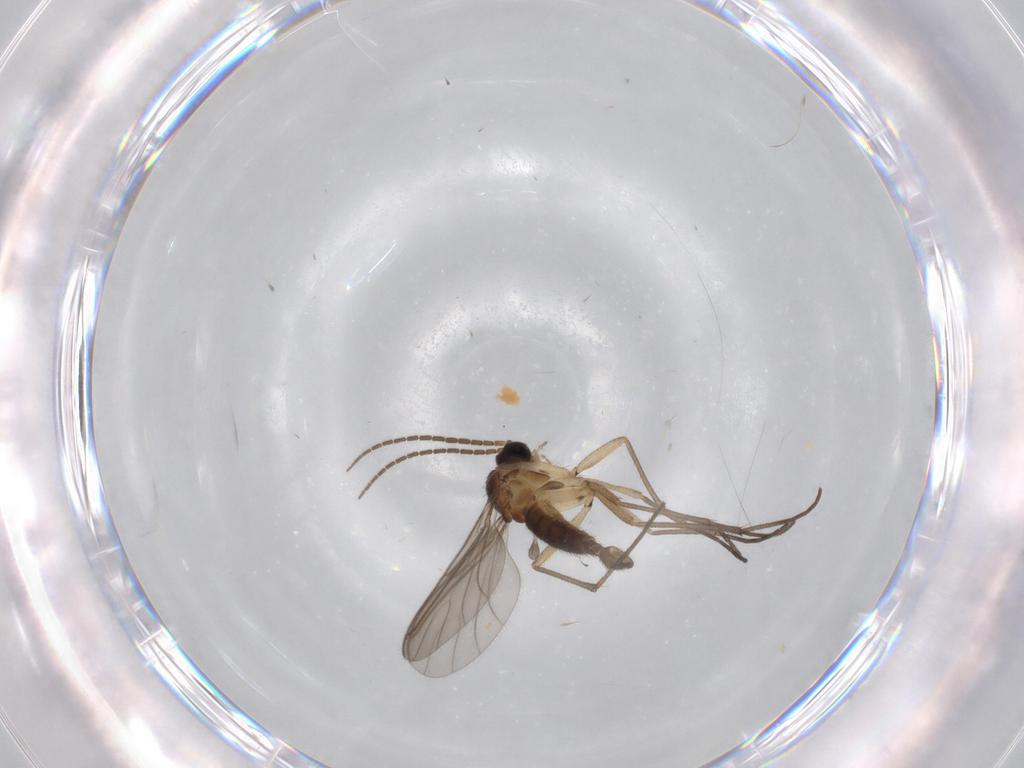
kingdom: Animalia
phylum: Arthropoda
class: Insecta
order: Diptera
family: Sciaridae
